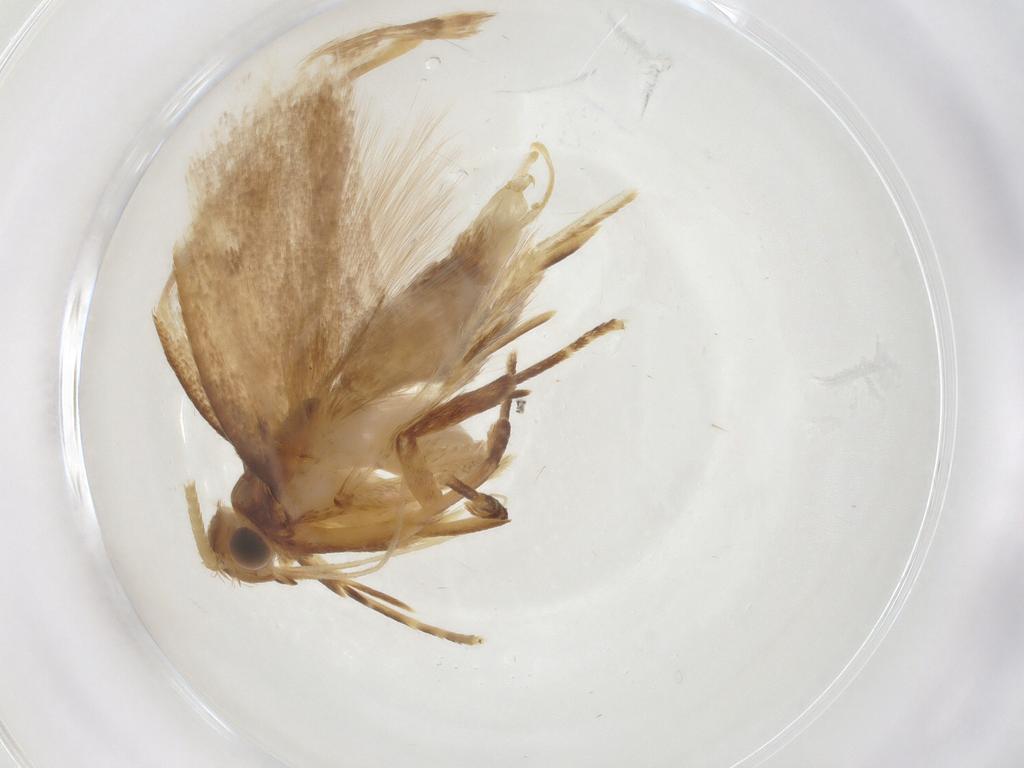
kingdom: Animalia
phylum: Arthropoda
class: Insecta
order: Lepidoptera
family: Lecithoceridae
